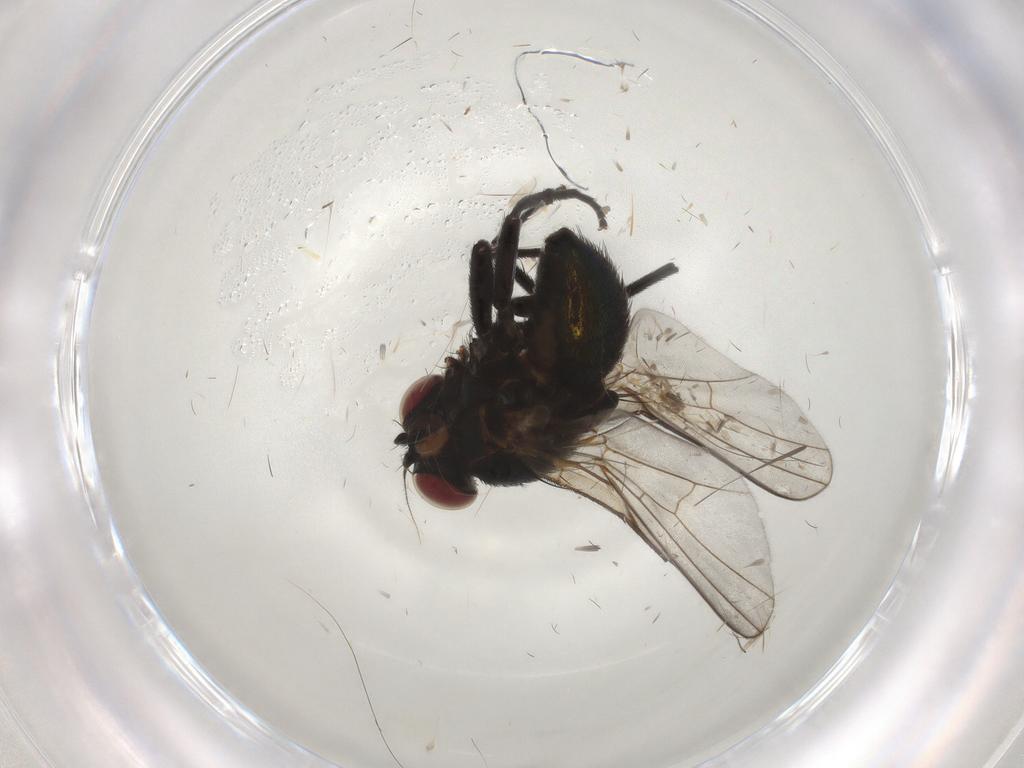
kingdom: Animalia
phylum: Arthropoda
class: Insecta
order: Diptera
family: Agromyzidae
